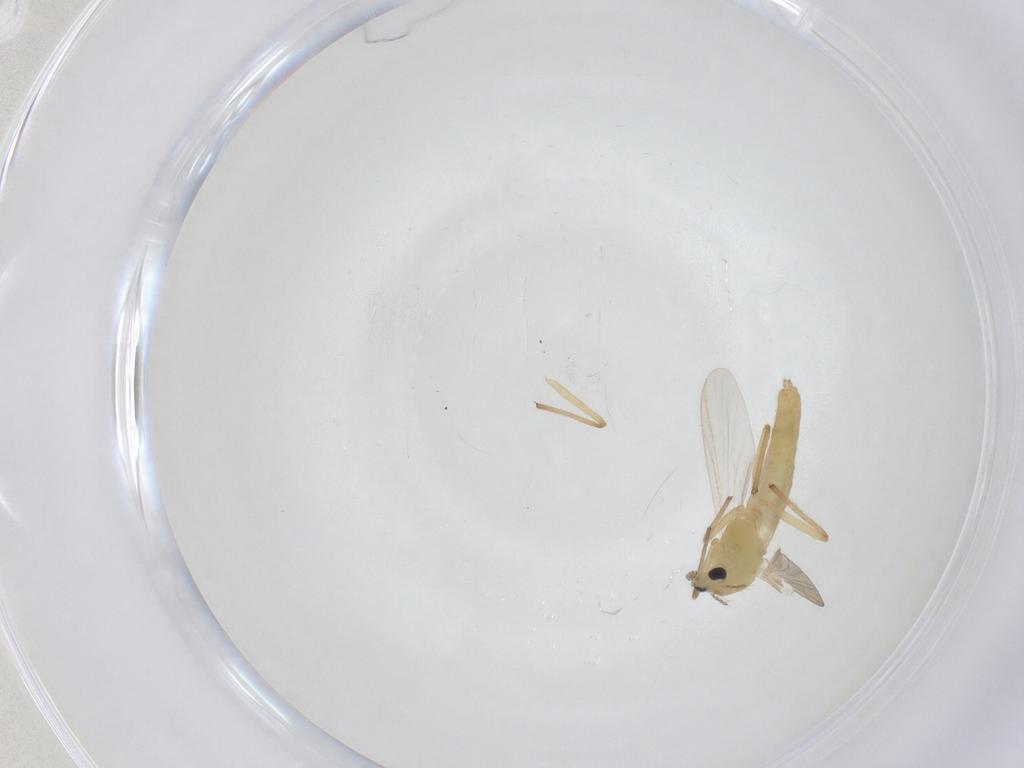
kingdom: Animalia
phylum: Arthropoda
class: Insecta
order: Diptera
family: Chironomidae
